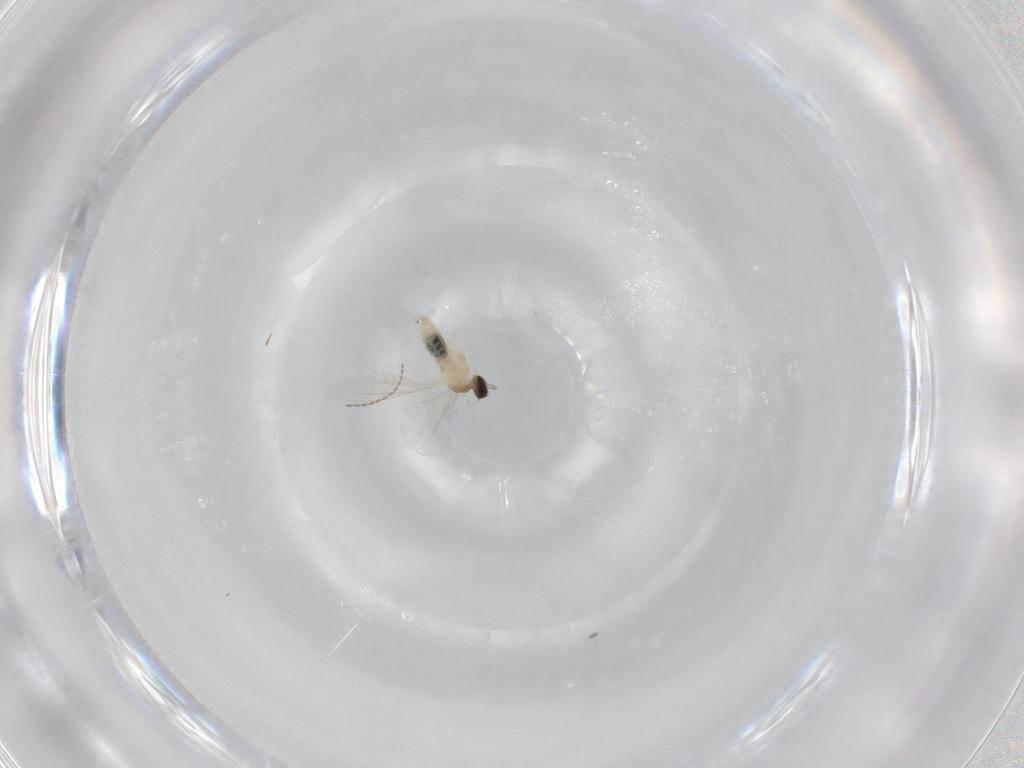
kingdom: Animalia
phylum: Arthropoda
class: Insecta
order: Diptera
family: Cecidomyiidae
